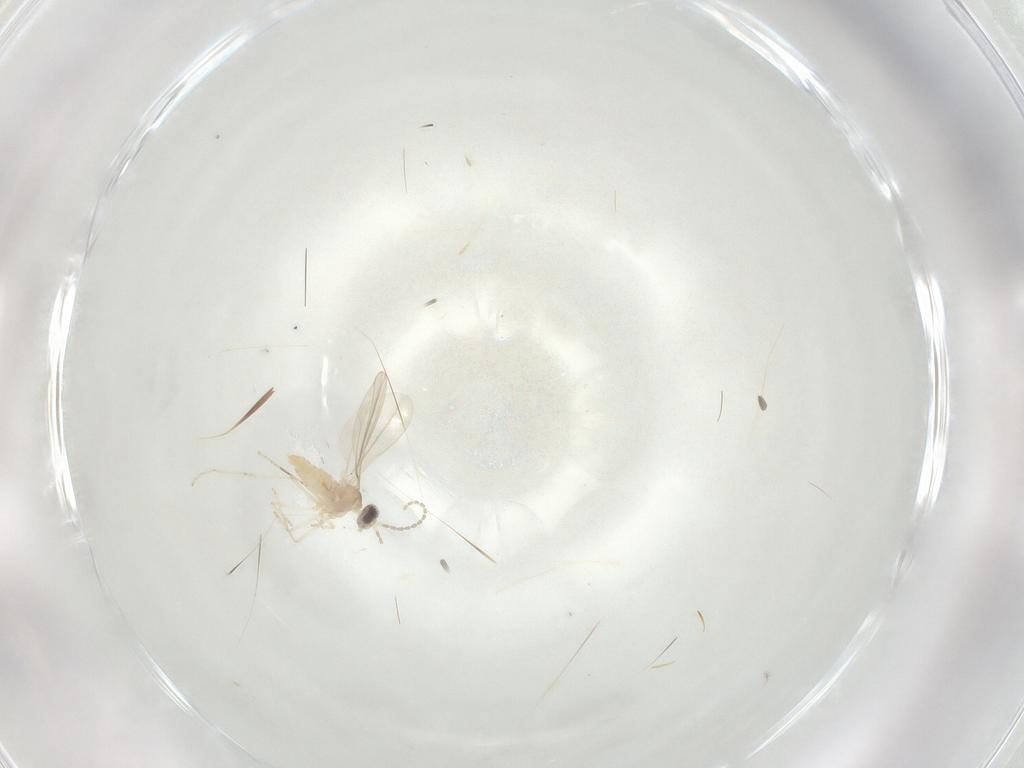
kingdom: Animalia
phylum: Arthropoda
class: Insecta
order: Diptera
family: Cecidomyiidae
